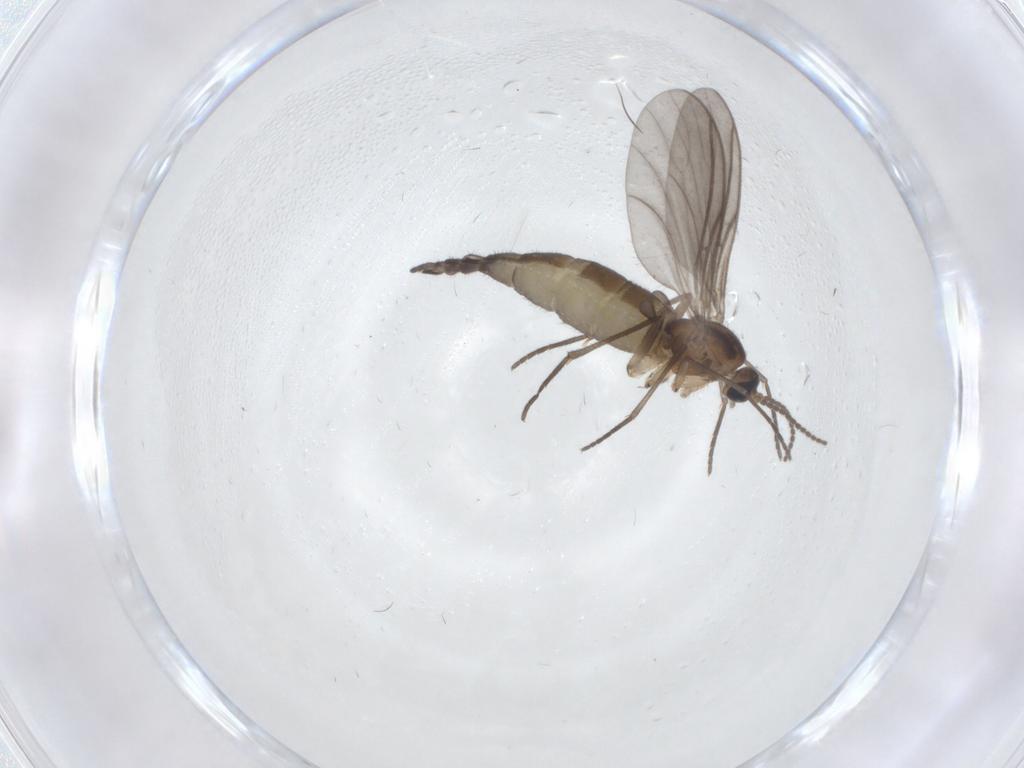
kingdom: Animalia
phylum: Arthropoda
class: Insecta
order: Diptera
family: Sciaridae
